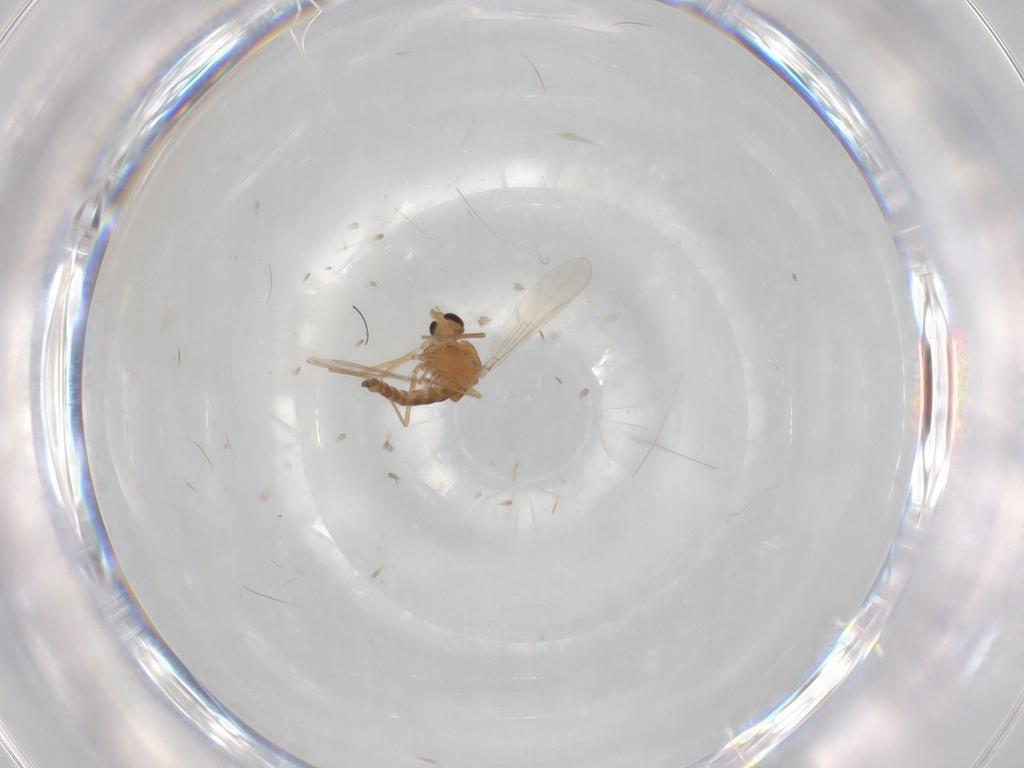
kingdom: Animalia
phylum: Arthropoda
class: Insecta
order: Diptera
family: Chironomidae
